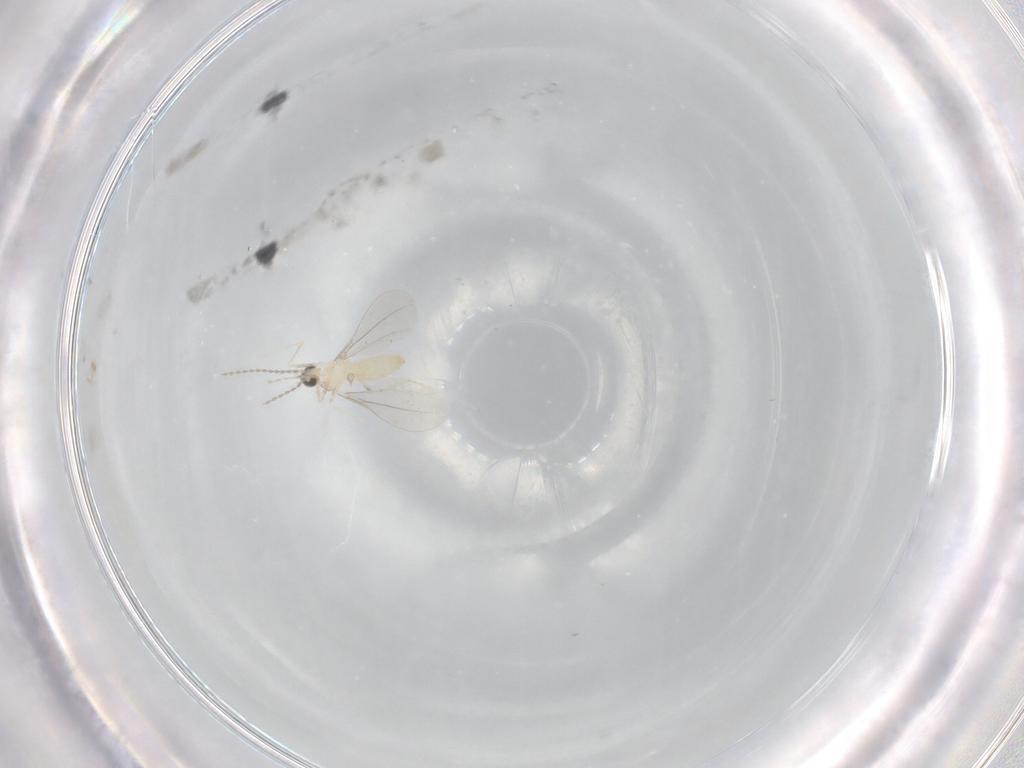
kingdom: Animalia
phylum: Arthropoda
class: Insecta
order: Diptera
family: Cecidomyiidae
